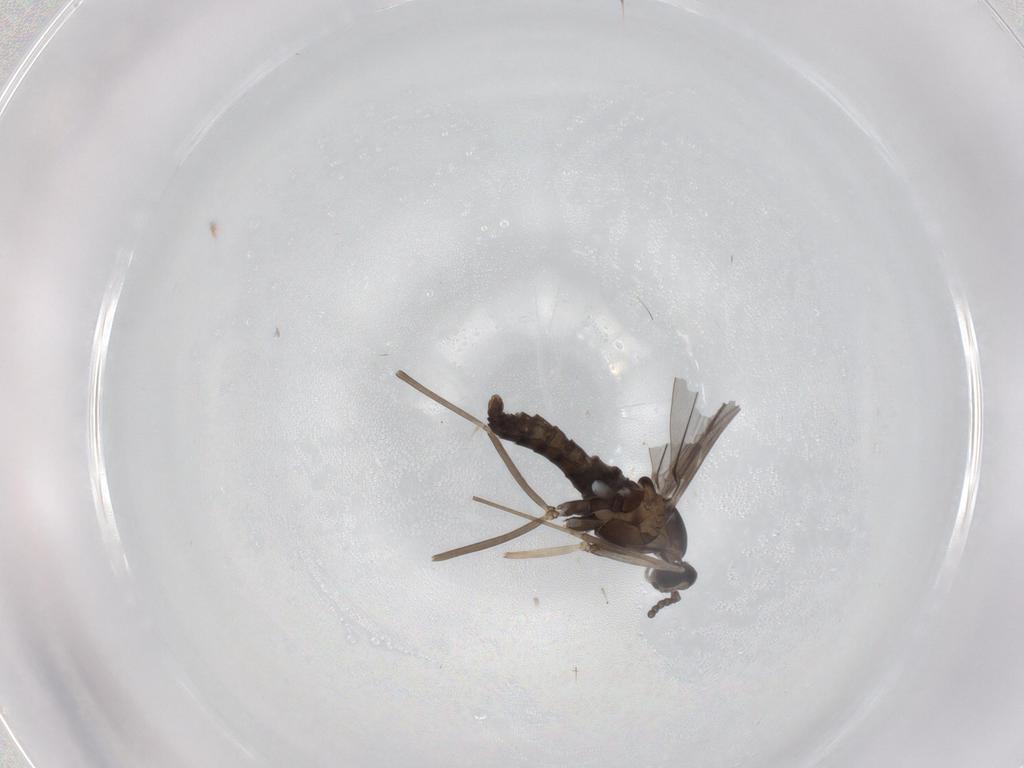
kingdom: Animalia
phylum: Arthropoda
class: Insecta
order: Diptera
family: Cecidomyiidae
